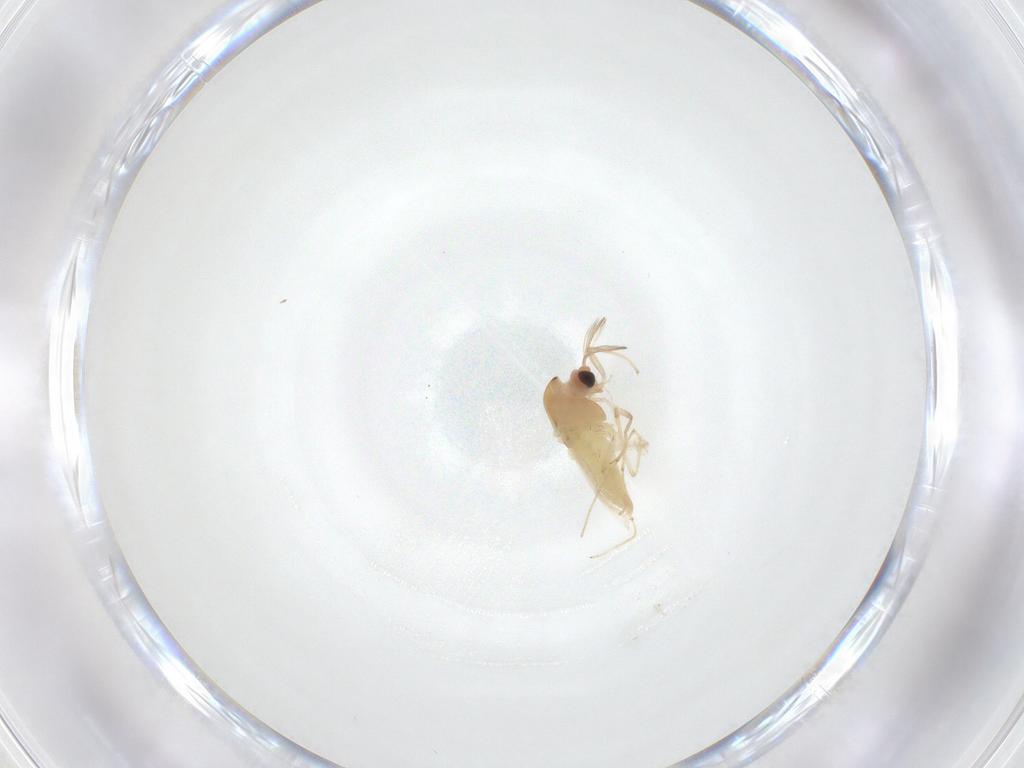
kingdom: Animalia
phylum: Arthropoda
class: Insecta
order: Diptera
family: Chironomidae
